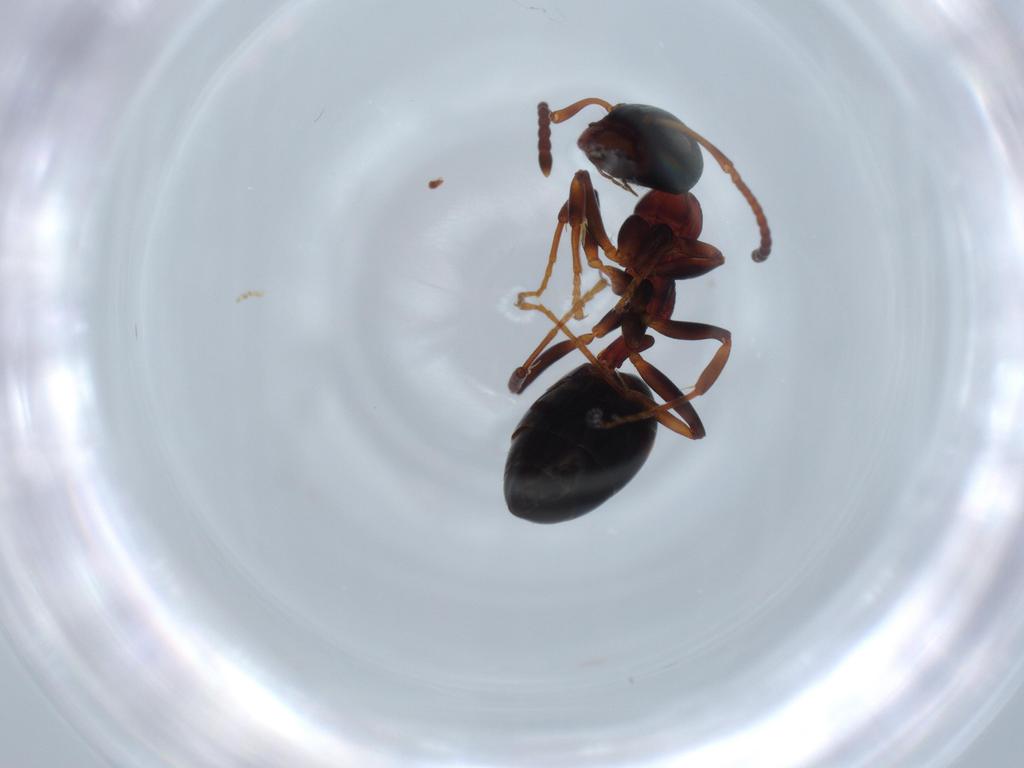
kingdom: Animalia
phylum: Arthropoda
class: Insecta
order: Hymenoptera
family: Formicidae
